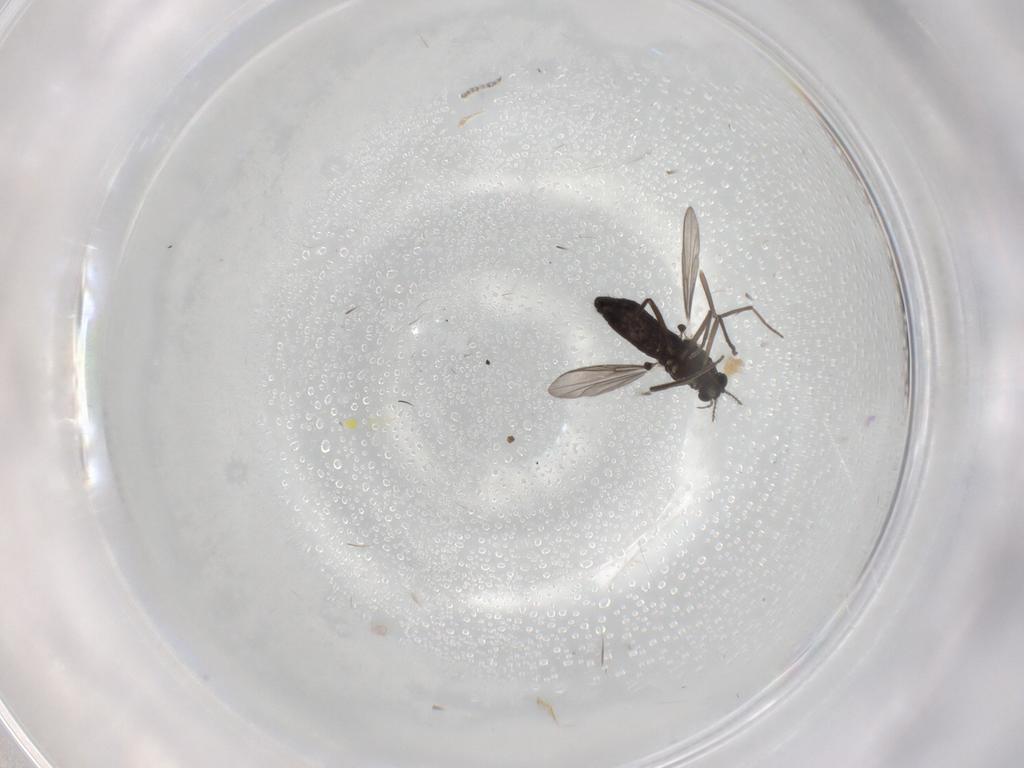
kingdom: Animalia
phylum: Arthropoda
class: Insecta
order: Diptera
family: Chironomidae
